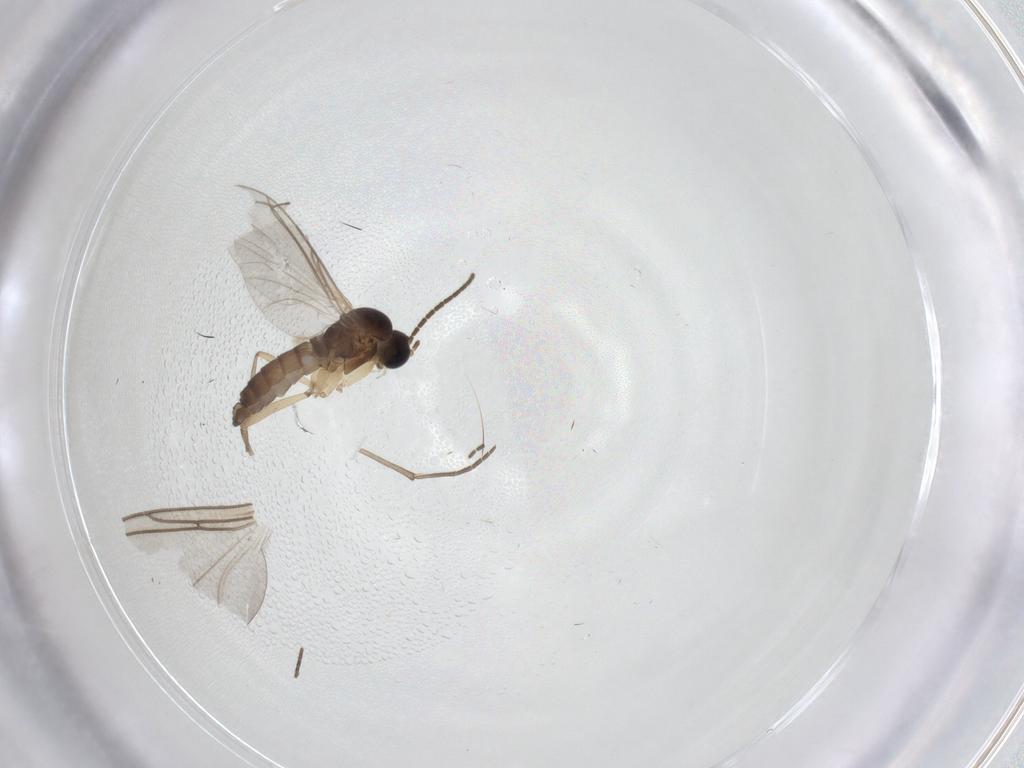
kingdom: Animalia
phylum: Arthropoda
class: Insecta
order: Diptera
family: Sciaridae
